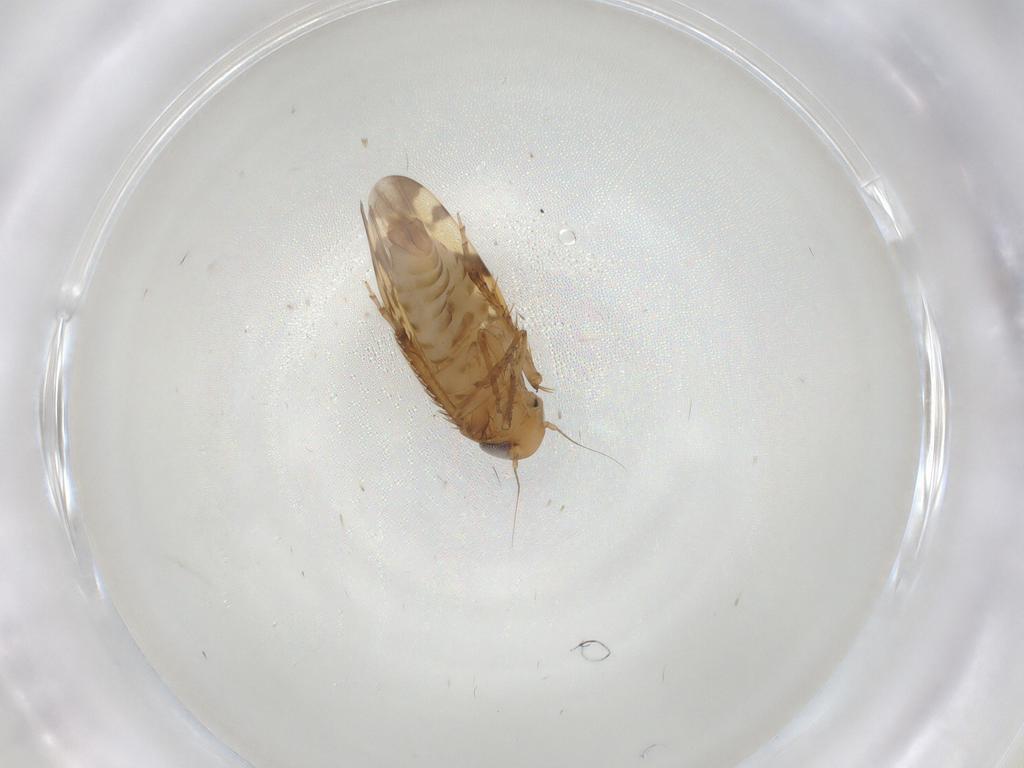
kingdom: Animalia
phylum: Arthropoda
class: Insecta
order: Hemiptera
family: Cicadellidae
